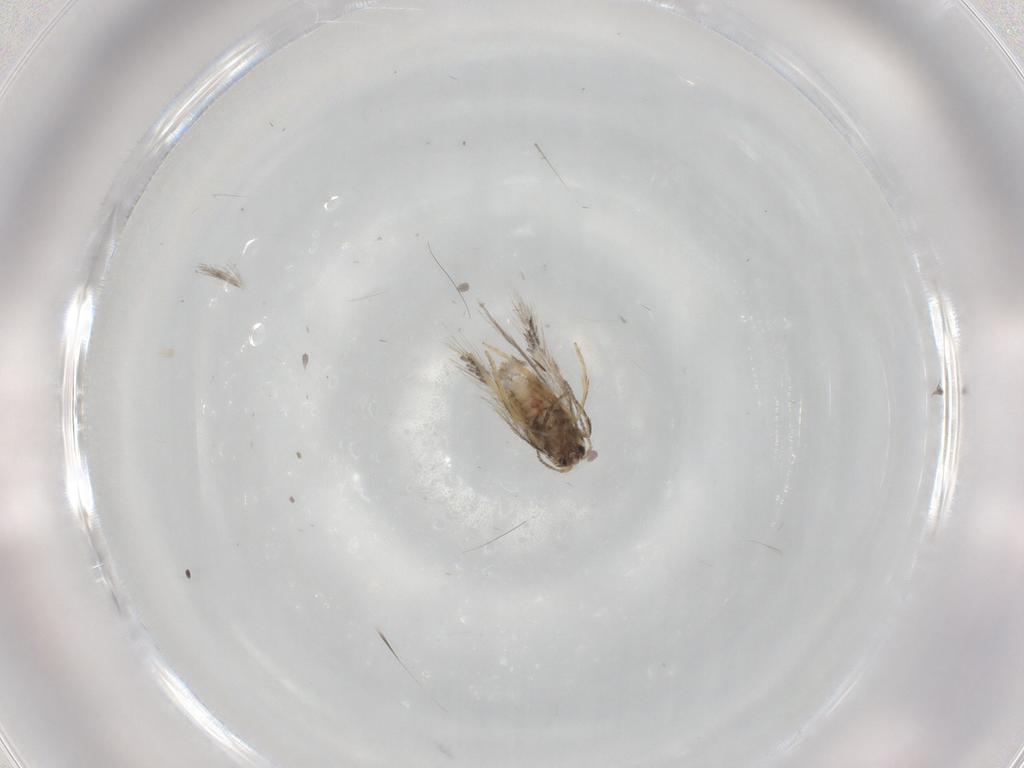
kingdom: Animalia
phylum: Arthropoda
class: Insecta
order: Lepidoptera
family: Nepticulidae
